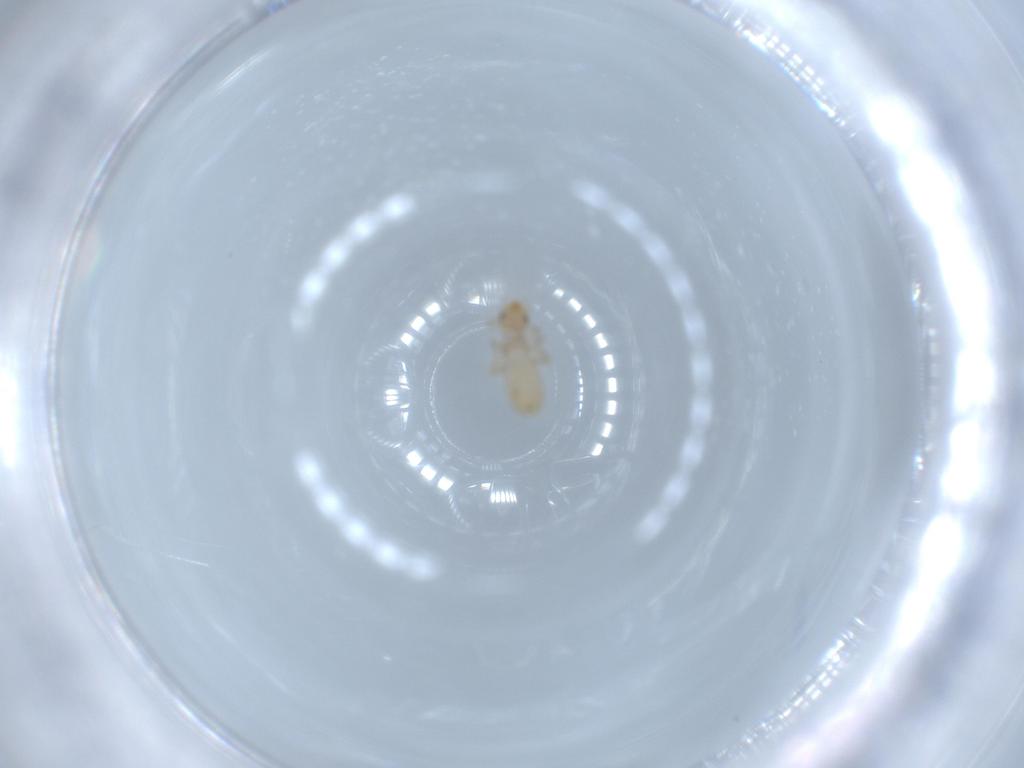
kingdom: Animalia
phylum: Arthropoda
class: Insecta
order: Psocodea
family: Liposcelididae
